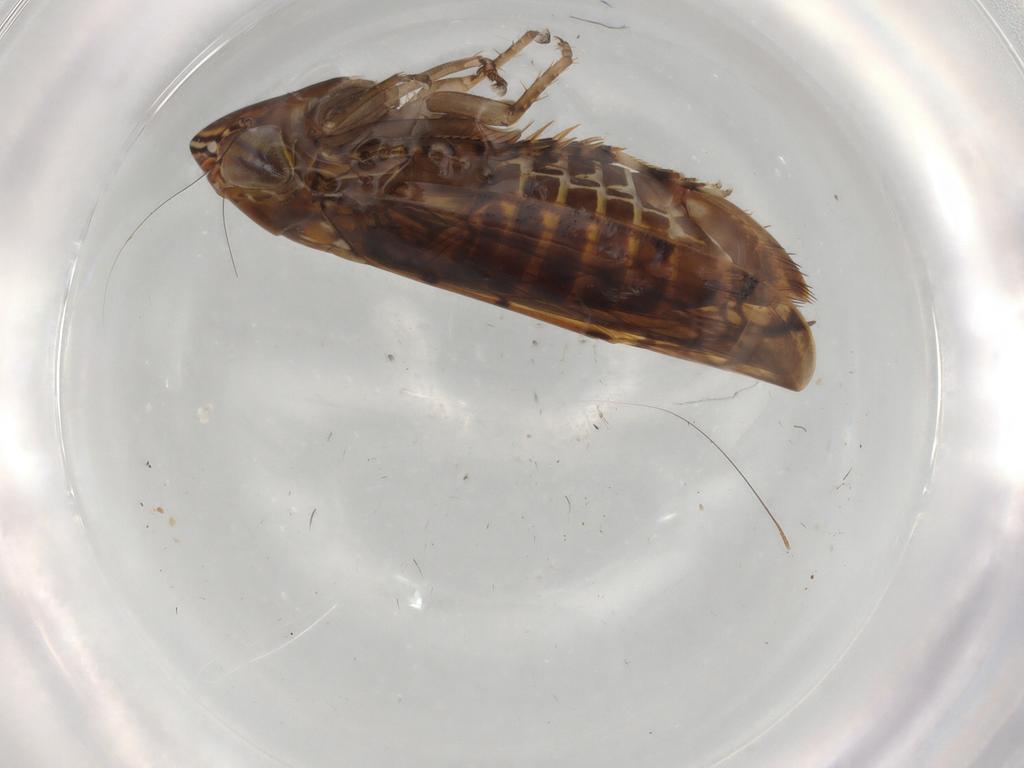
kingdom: Animalia
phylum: Arthropoda
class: Insecta
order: Hemiptera
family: Cicadellidae
